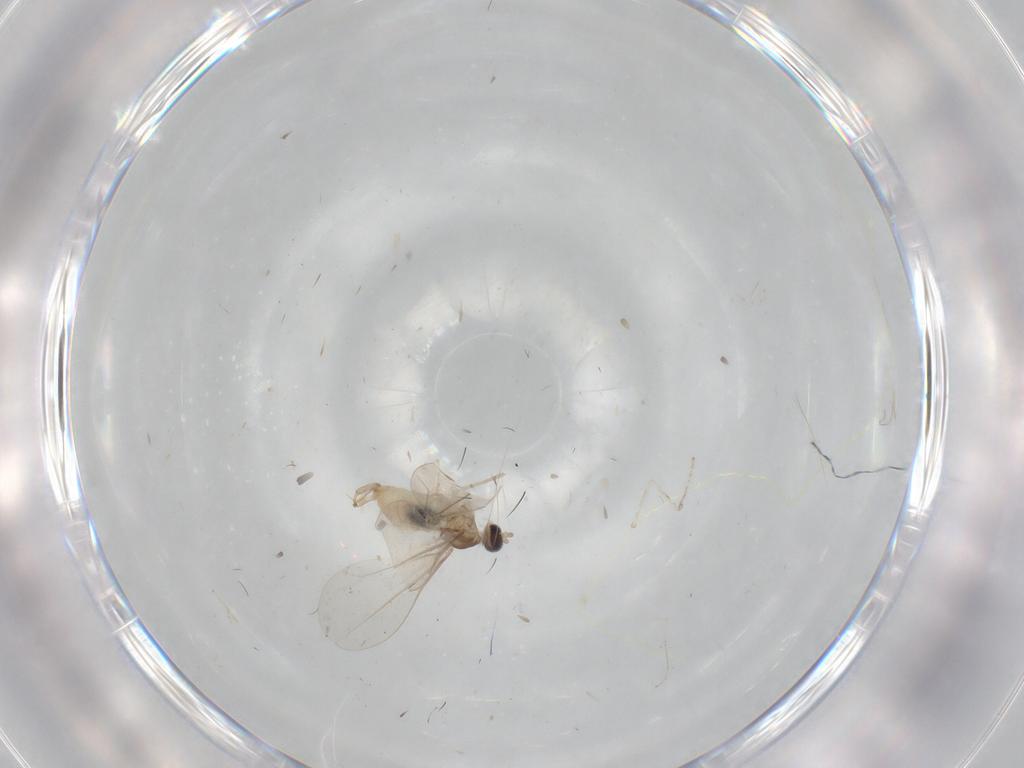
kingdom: Animalia
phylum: Arthropoda
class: Insecta
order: Diptera
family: Cecidomyiidae
